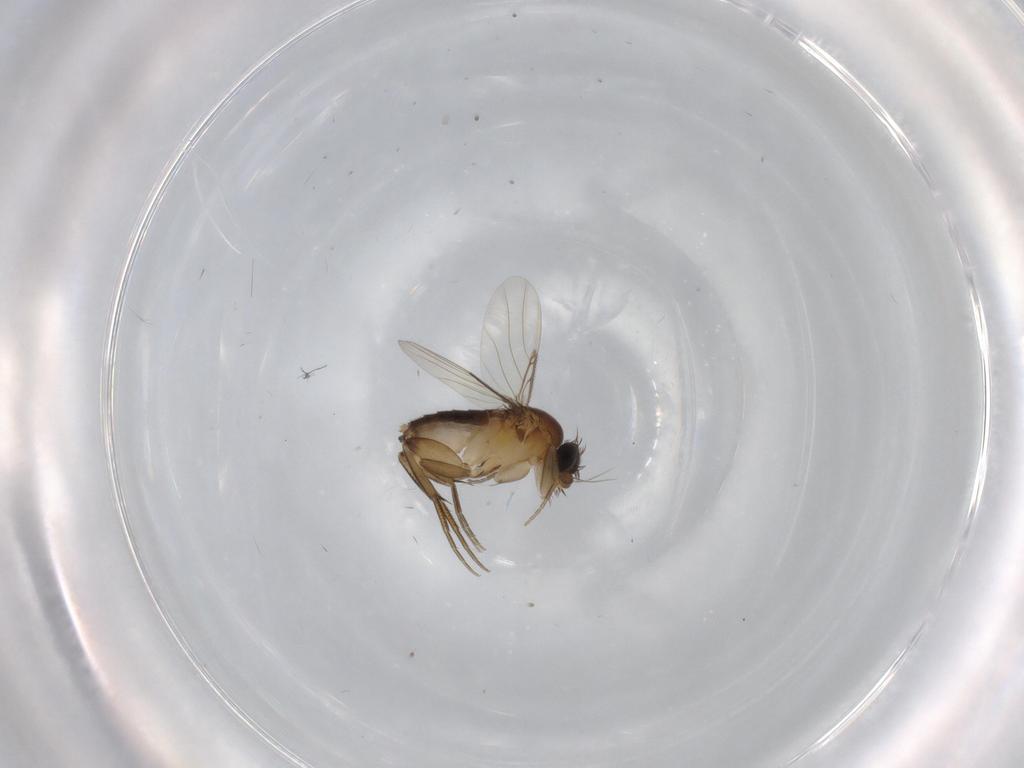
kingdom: Animalia
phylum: Arthropoda
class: Insecta
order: Diptera
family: Phoridae
